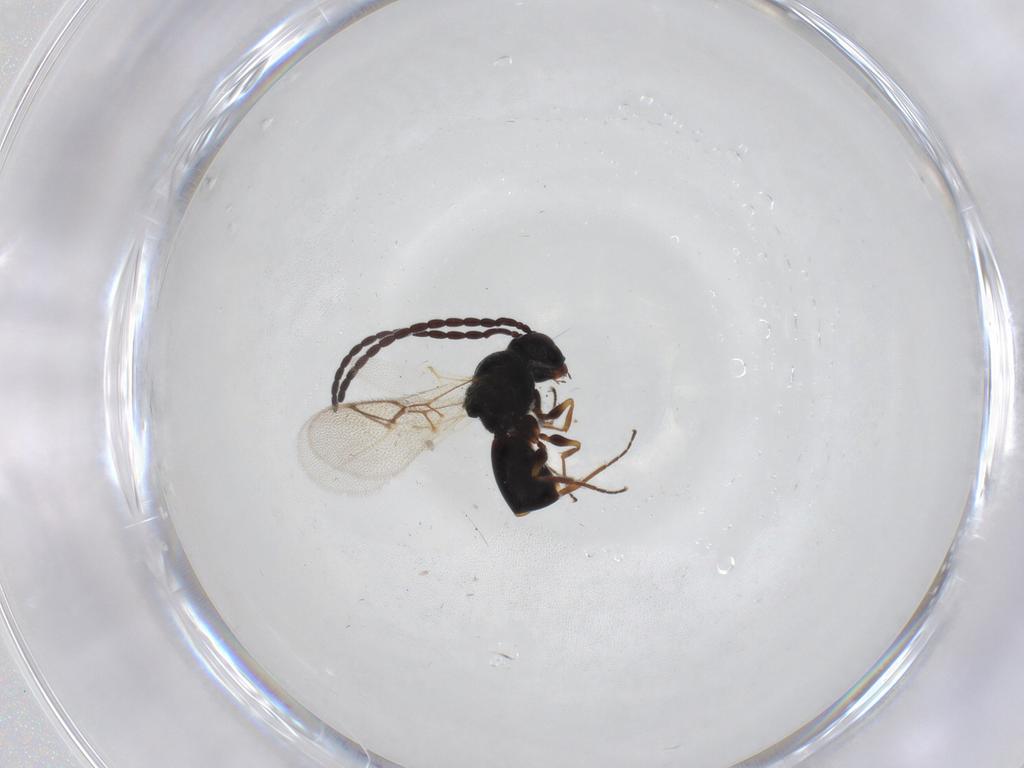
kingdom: Animalia
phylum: Arthropoda
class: Insecta
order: Hymenoptera
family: Figitidae
